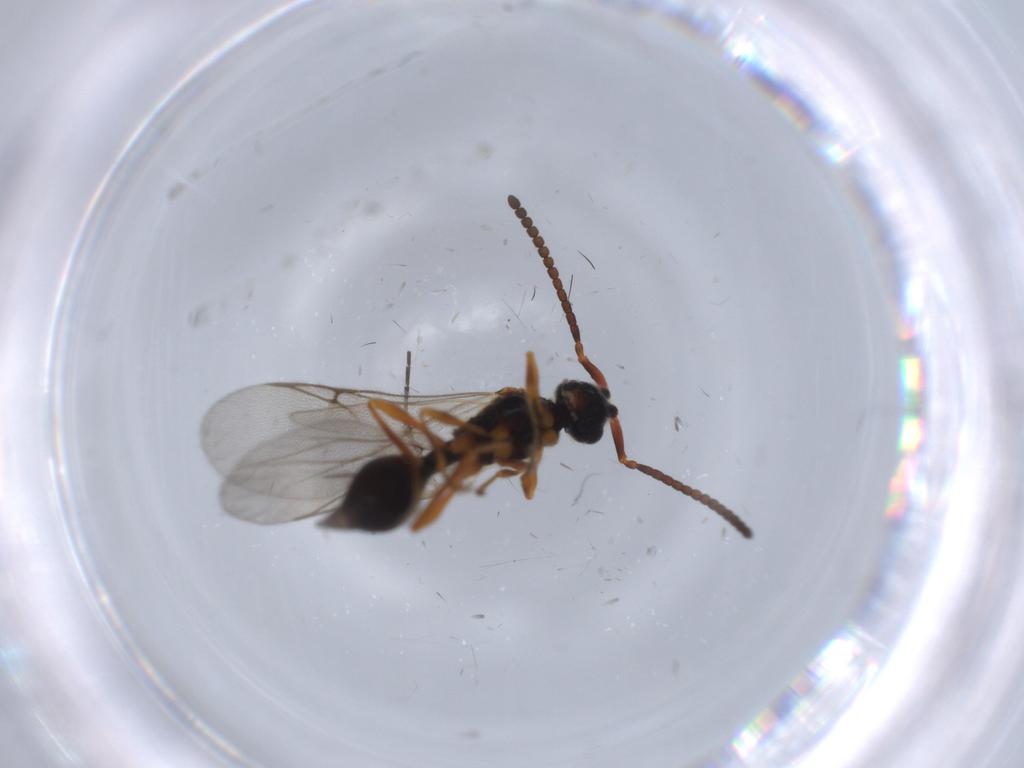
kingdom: Animalia
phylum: Arthropoda
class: Insecta
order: Hymenoptera
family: Diapriidae
